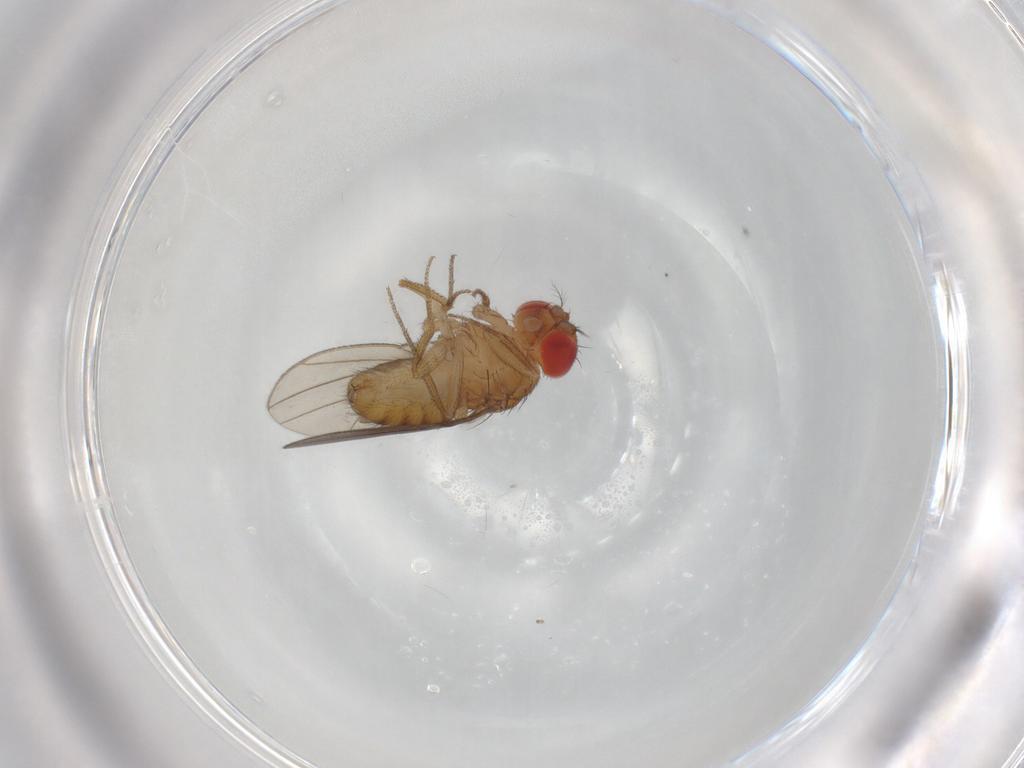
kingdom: Animalia
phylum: Arthropoda
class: Insecta
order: Diptera
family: Drosophilidae
